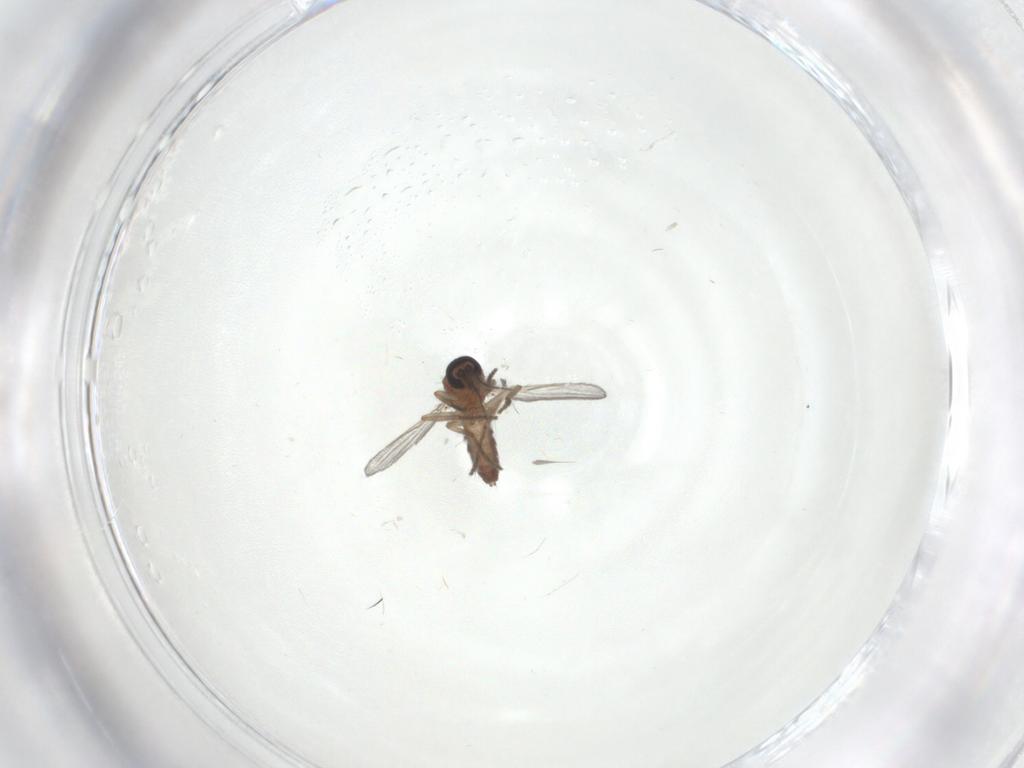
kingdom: Animalia
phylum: Arthropoda
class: Insecta
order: Diptera
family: Ceratopogonidae
